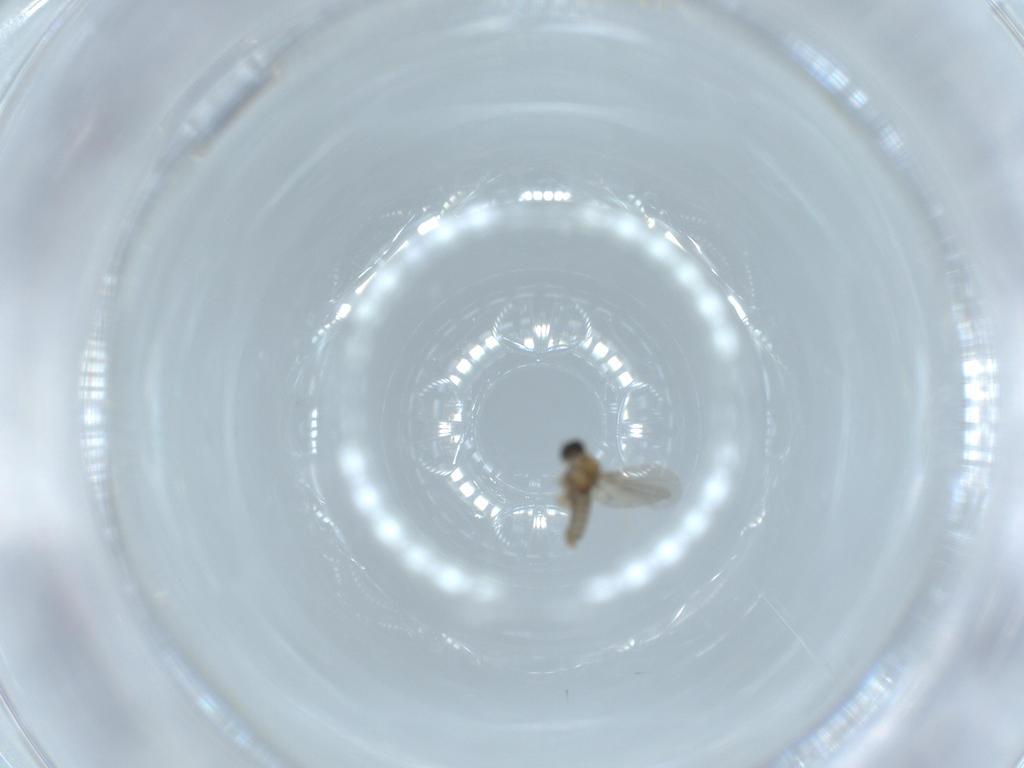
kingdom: Animalia
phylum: Arthropoda
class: Insecta
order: Diptera
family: Cecidomyiidae
